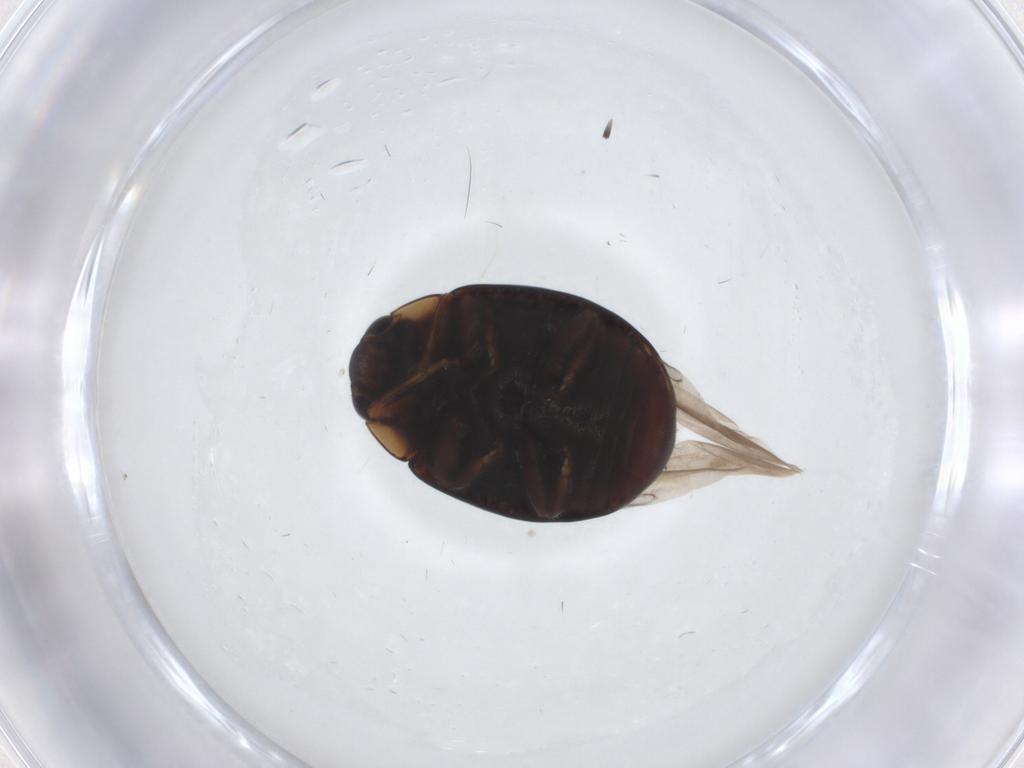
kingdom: Animalia
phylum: Arthropoda
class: Insecta
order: Coleoptera
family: Coccinellidae
